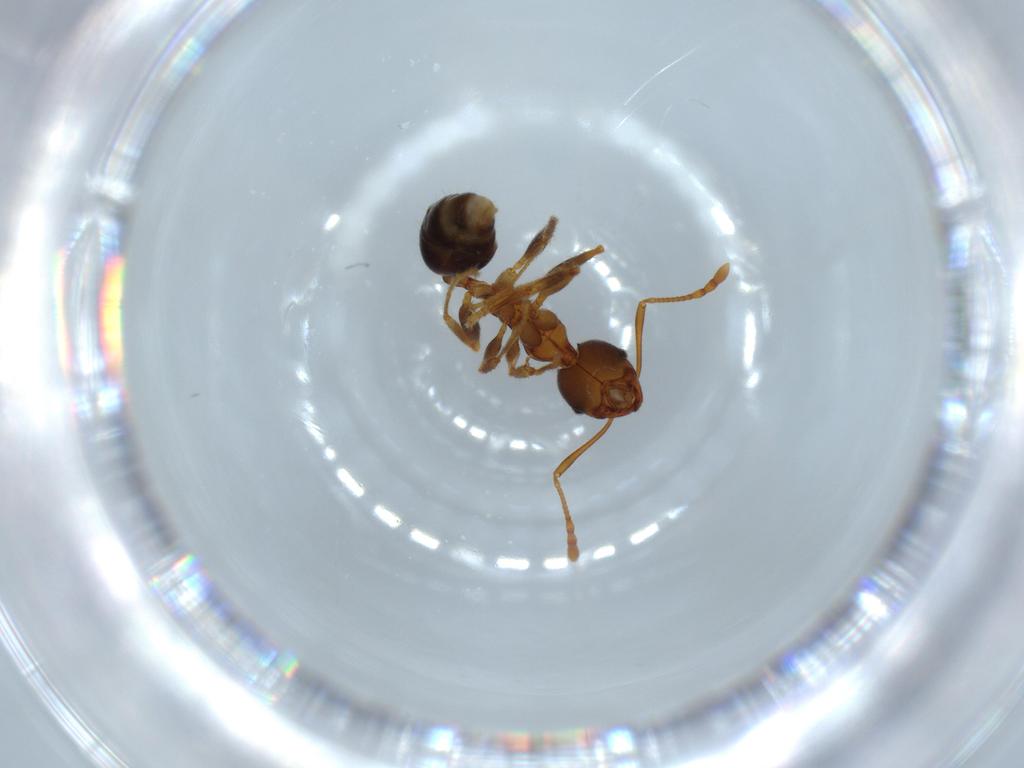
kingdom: Animalia
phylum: Arthropoda
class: Insecta
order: Hymenoptera
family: Formicidae
